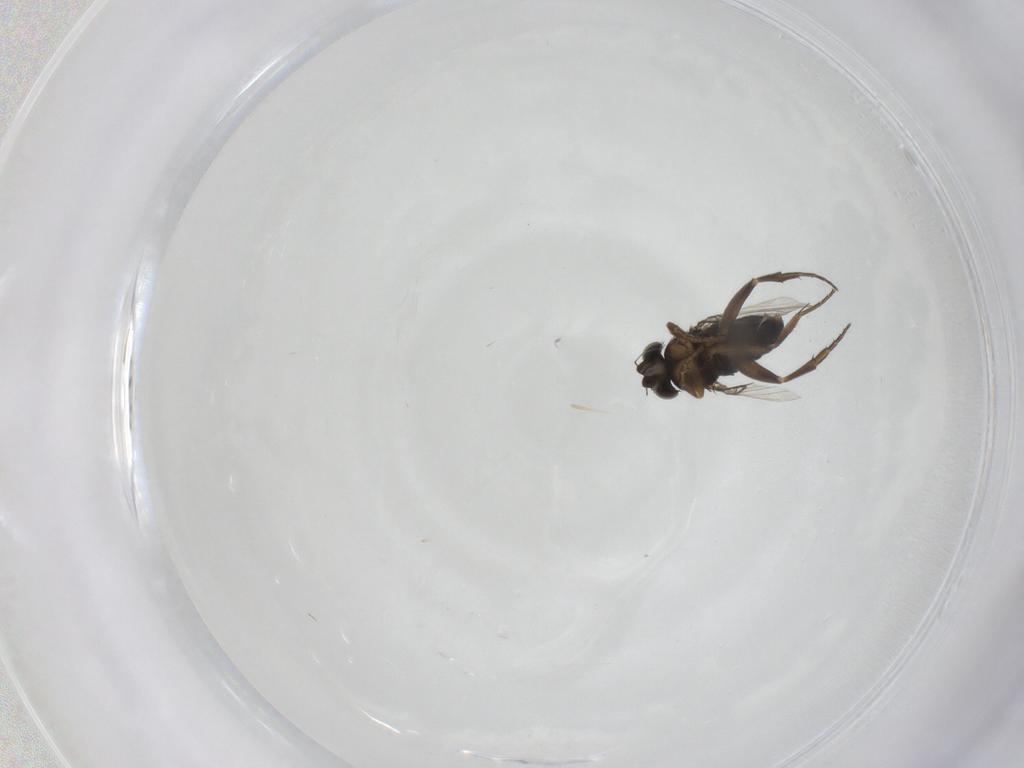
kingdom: Animalia
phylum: Arthropoda
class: Insecta
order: Diptera
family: Phoridae
